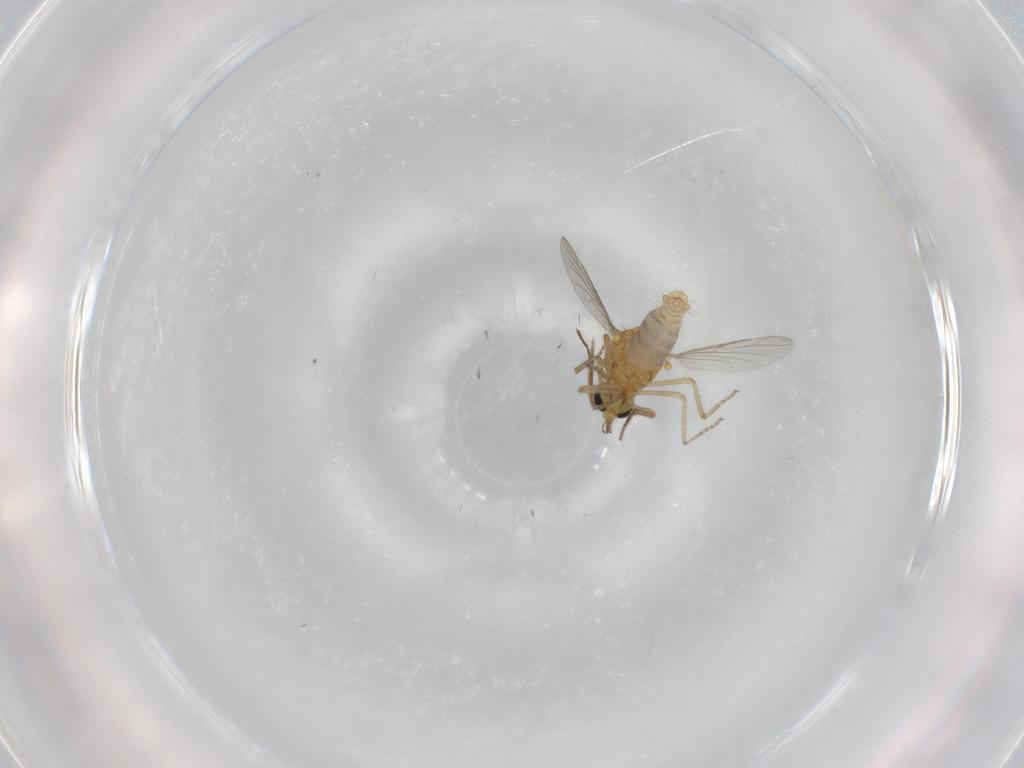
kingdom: Animalia
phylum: Arthropoda
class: Insecta
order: Diptera
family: Ceratopogonidae
